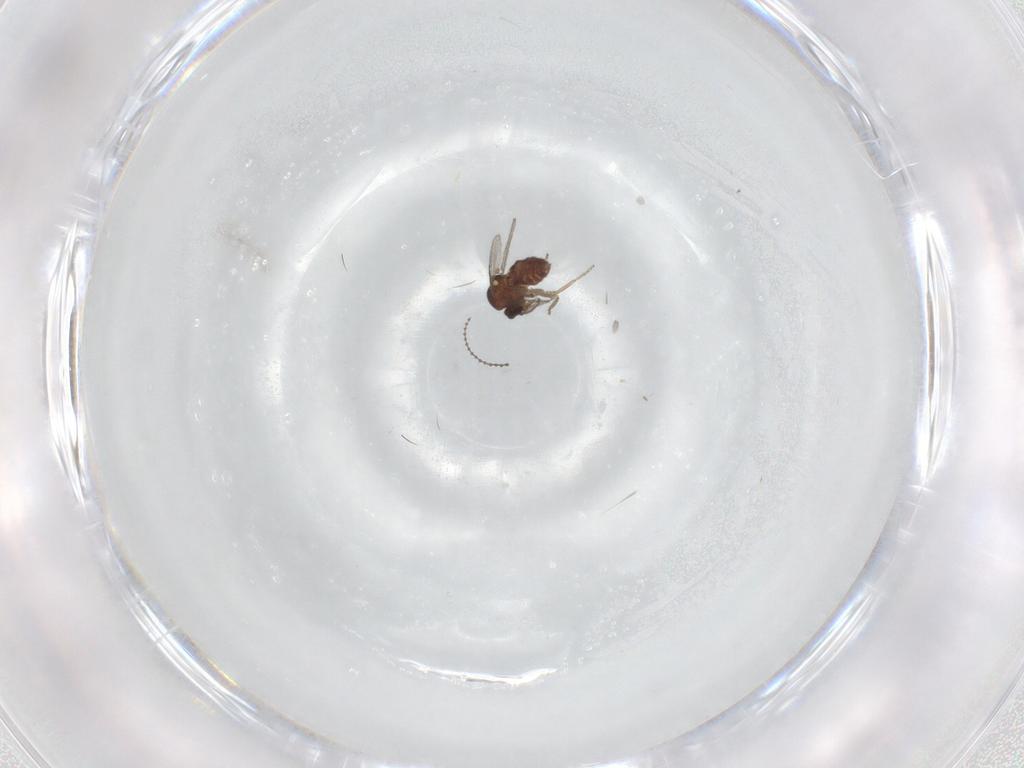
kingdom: Animalia
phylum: Arthropoda
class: Insecta
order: Diptera
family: Ceratopogonidae
